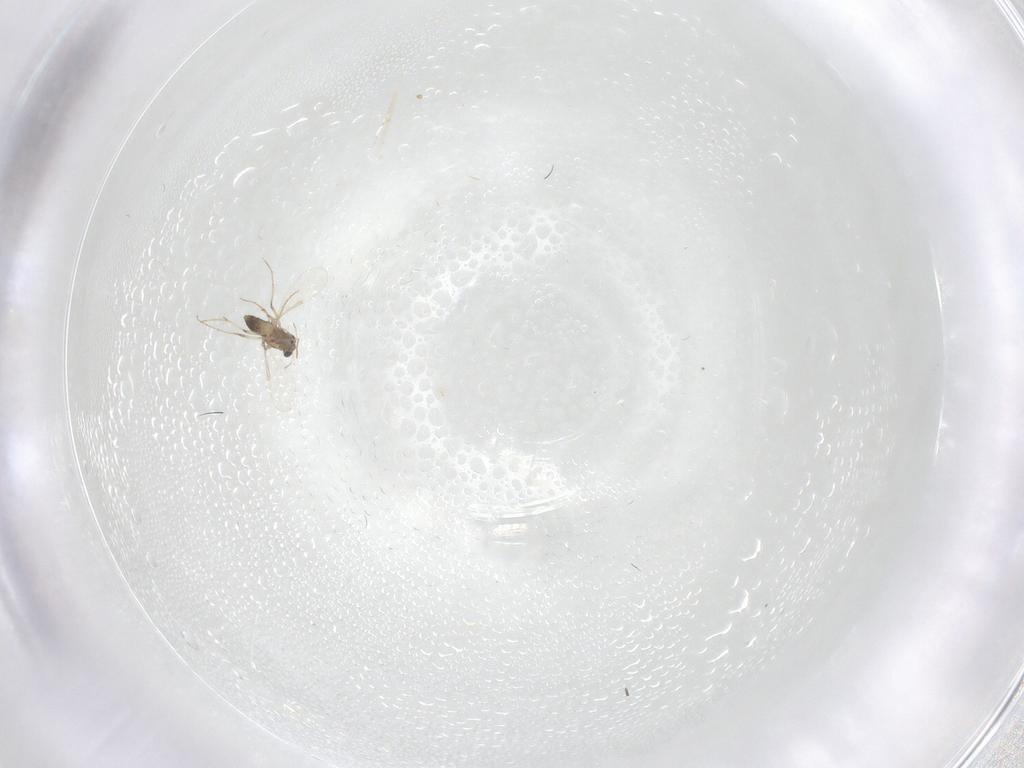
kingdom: Animalia
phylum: Arthropoda
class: Insecta
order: Diptera
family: Chironomidae
